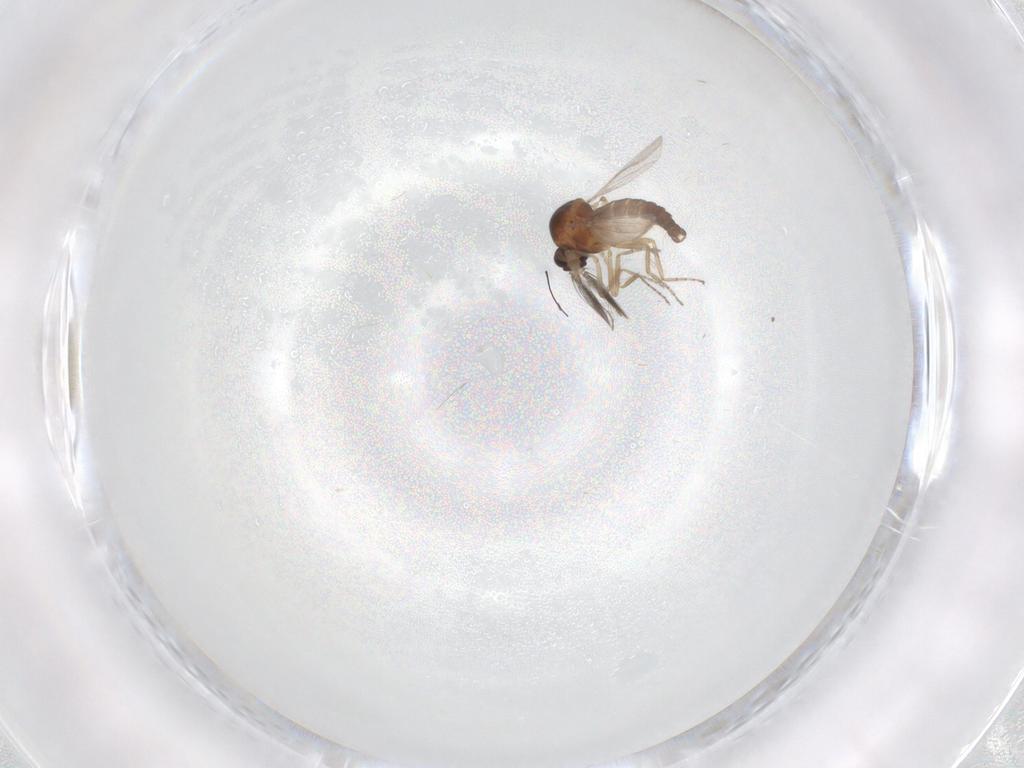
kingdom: Animalia
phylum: Arthropoda
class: Insecta
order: Diptera
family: Ceratopogonidae
